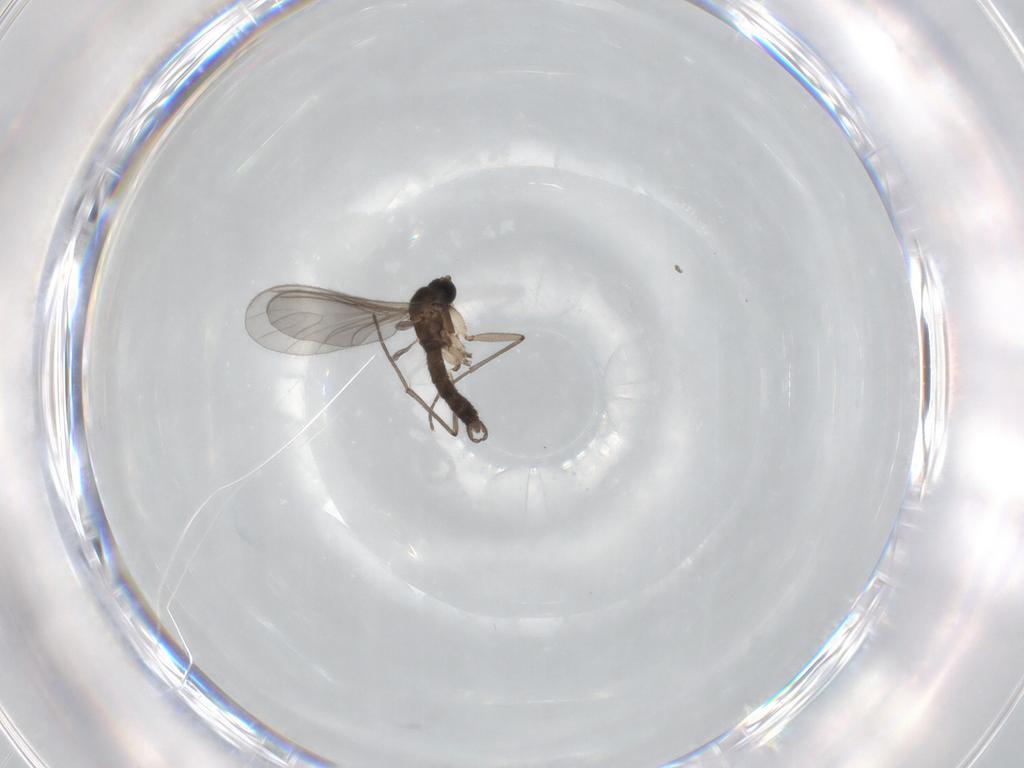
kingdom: Animalia
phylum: Arthropoda
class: Insecta
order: Diptera
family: Sciaridae
